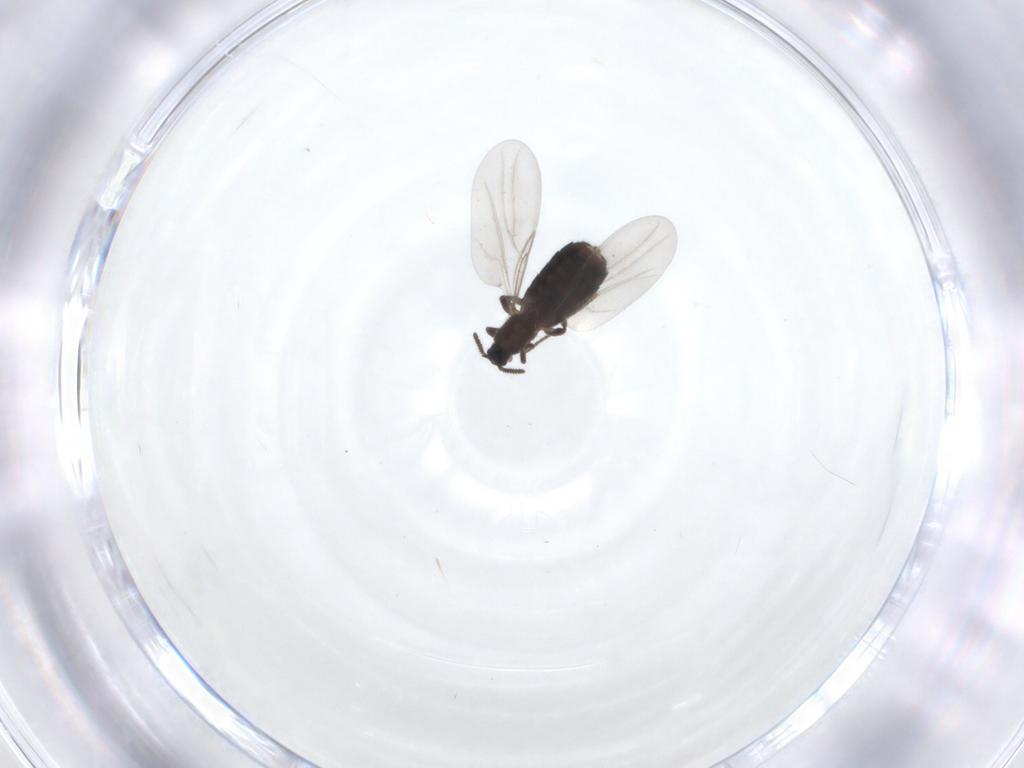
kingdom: Animalia
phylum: Arthropoda
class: Insecta
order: Diptera
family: Scatopsidae
